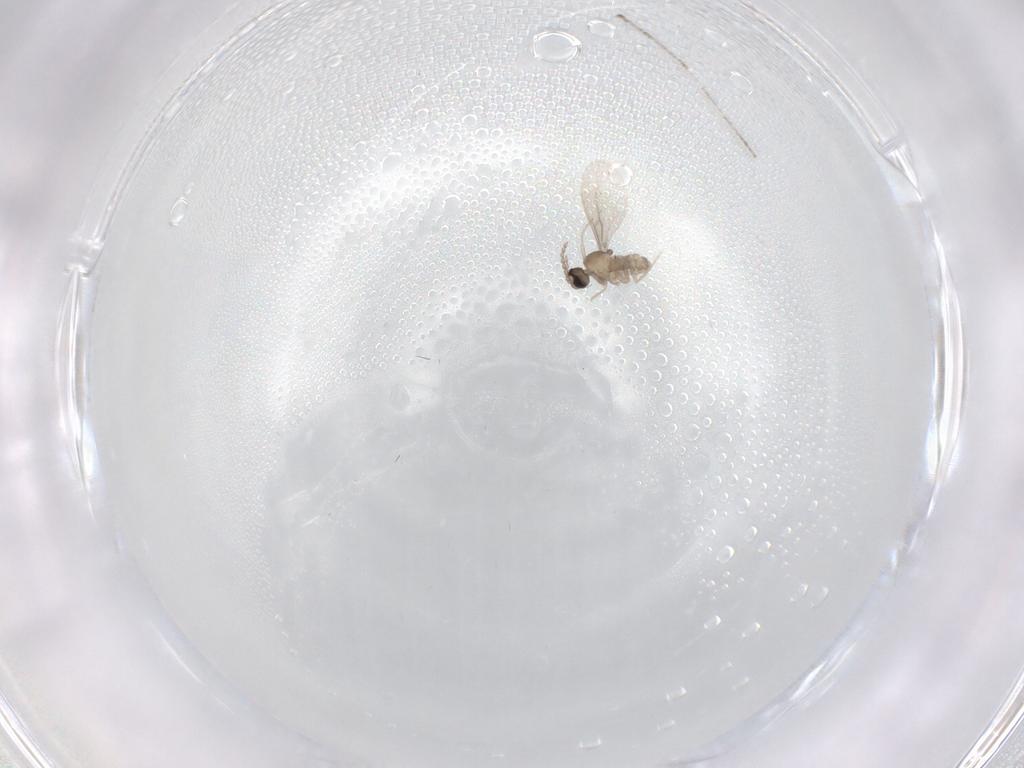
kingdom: Animalia
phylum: Arthropoda
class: Insecta
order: Diptera
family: Cecidomyiidae
